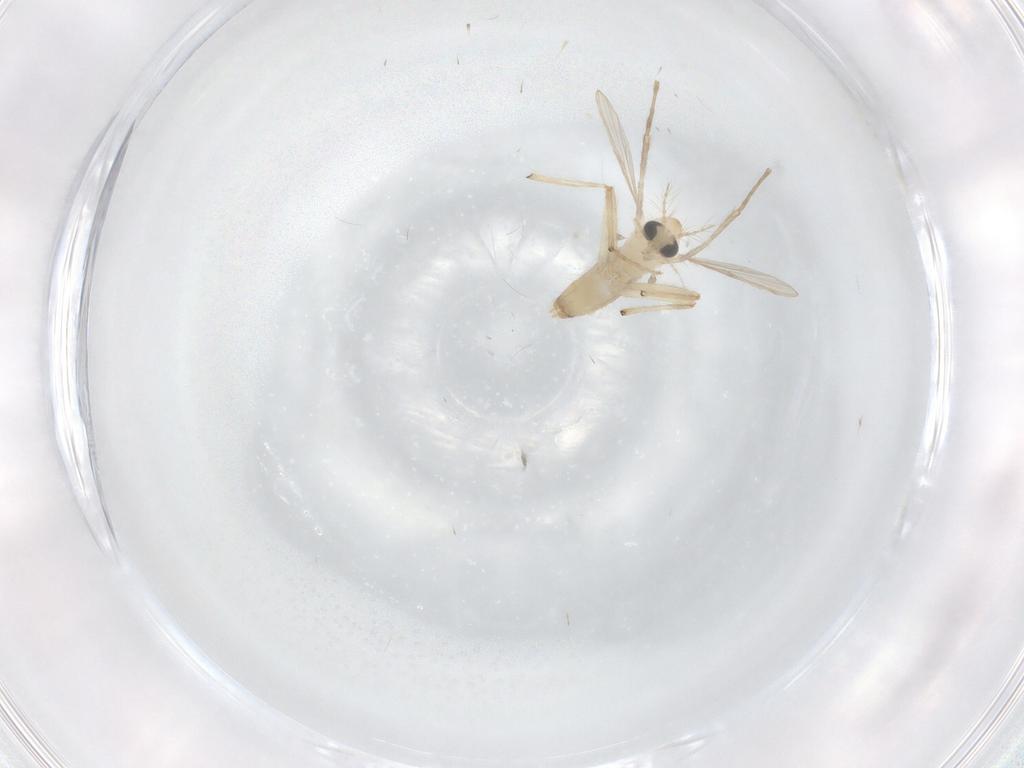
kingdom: Animalia
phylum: Arthropoda
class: Insecta
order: Diptera
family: Chironomidae
